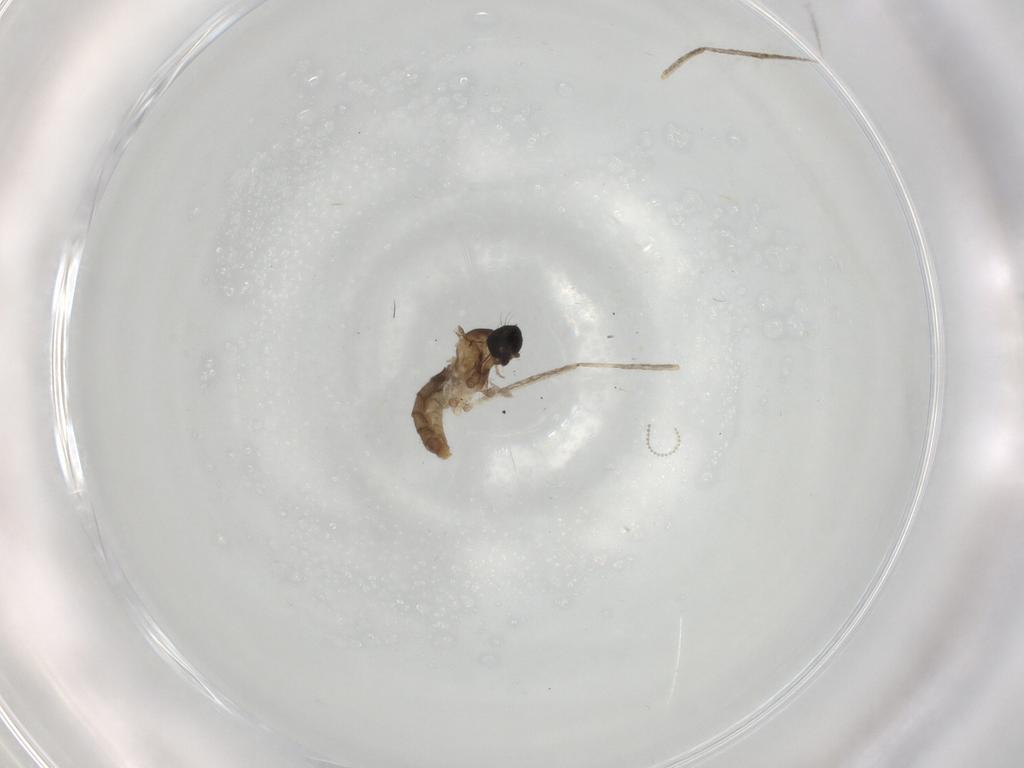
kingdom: Animalia
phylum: Arthropoda
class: Insecta
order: Diptera
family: Cecidomyiidae
